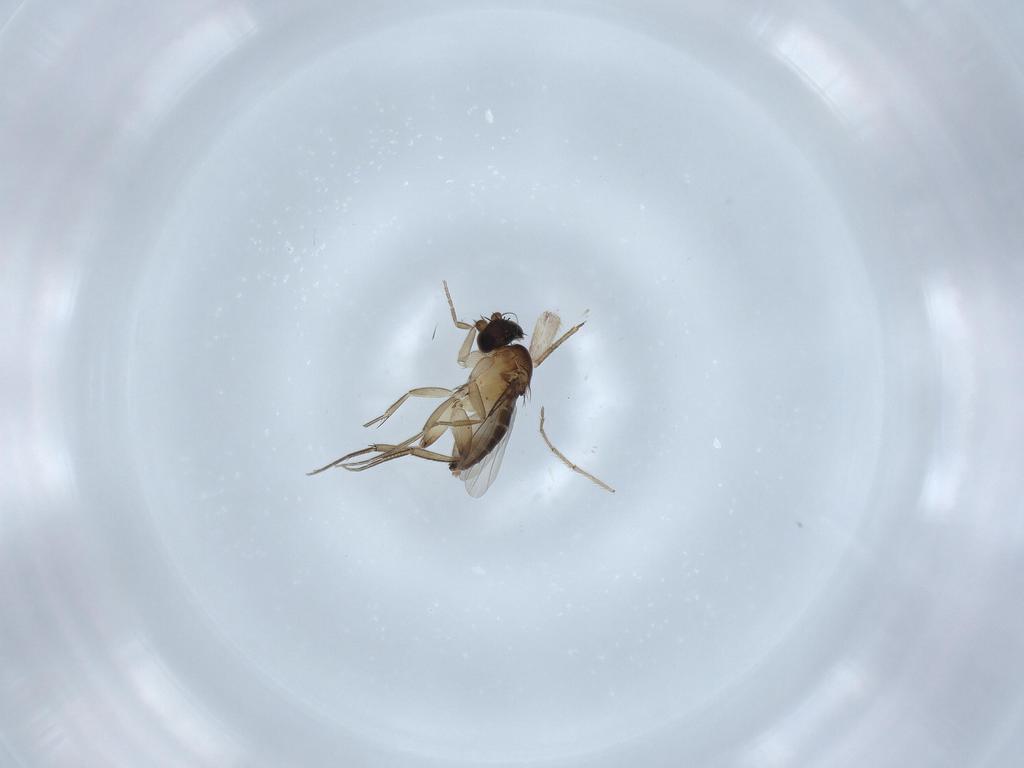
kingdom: Animalia
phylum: Arthropoda
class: Insecta
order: Diptera
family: Phoridae
